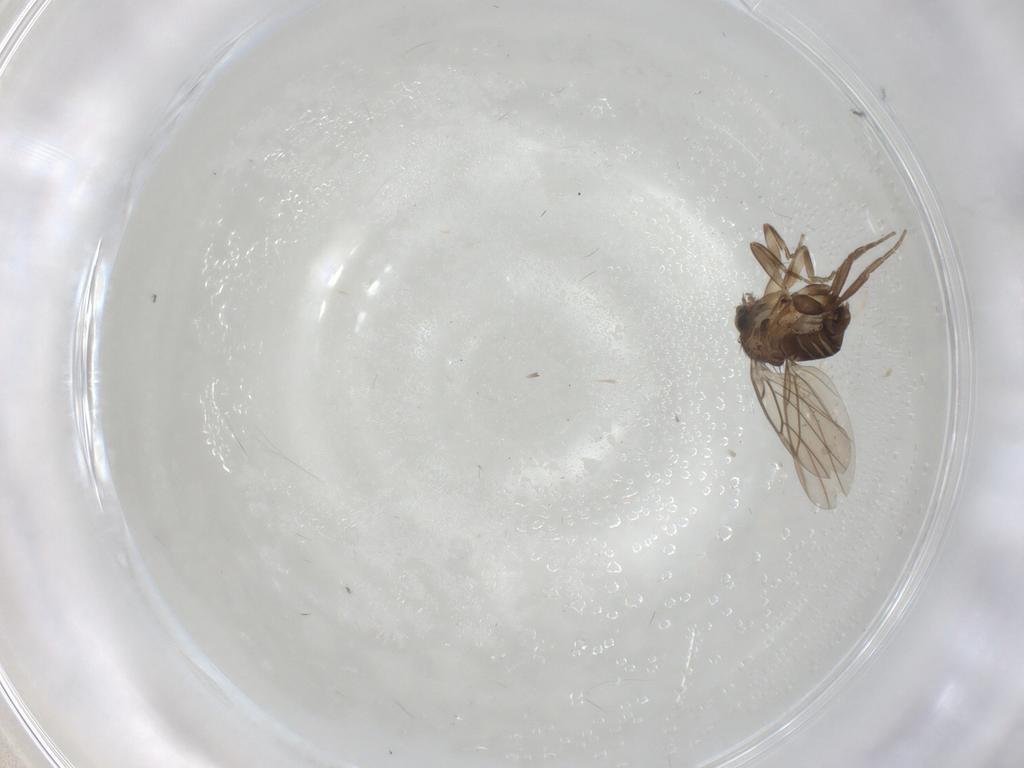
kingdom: Animalia
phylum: Arthropoda
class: Insecta
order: Diptera
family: Phoridae
